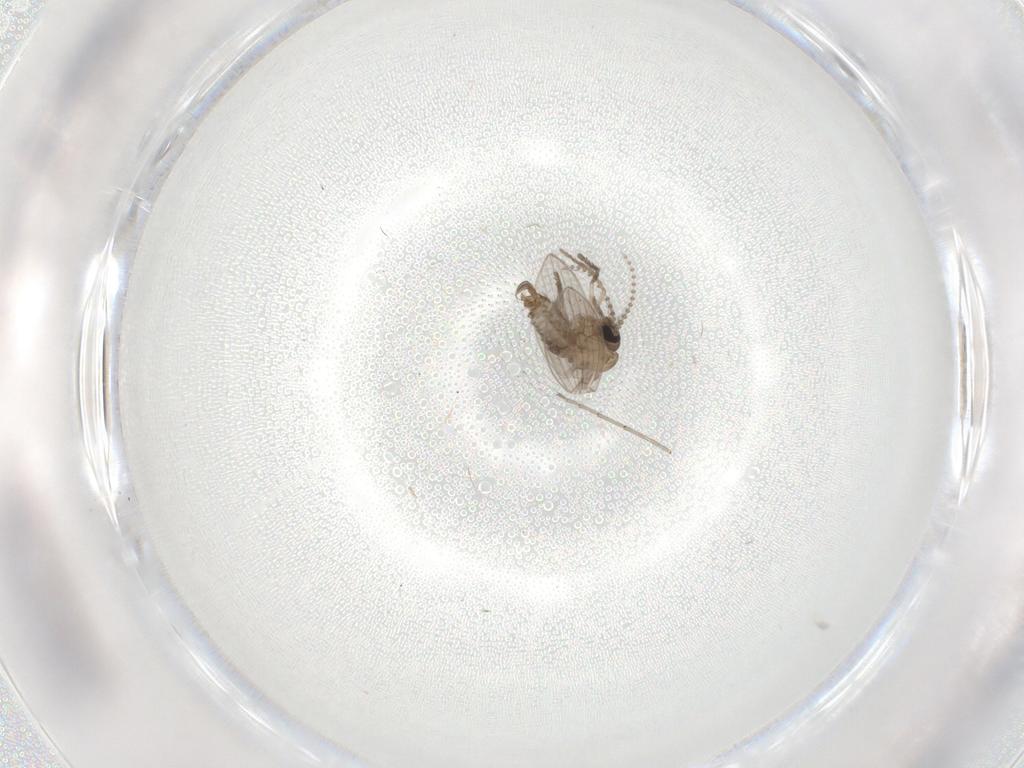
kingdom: Animalia
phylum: Arthropoda
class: Insecta
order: Diptera
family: Psychodidae
